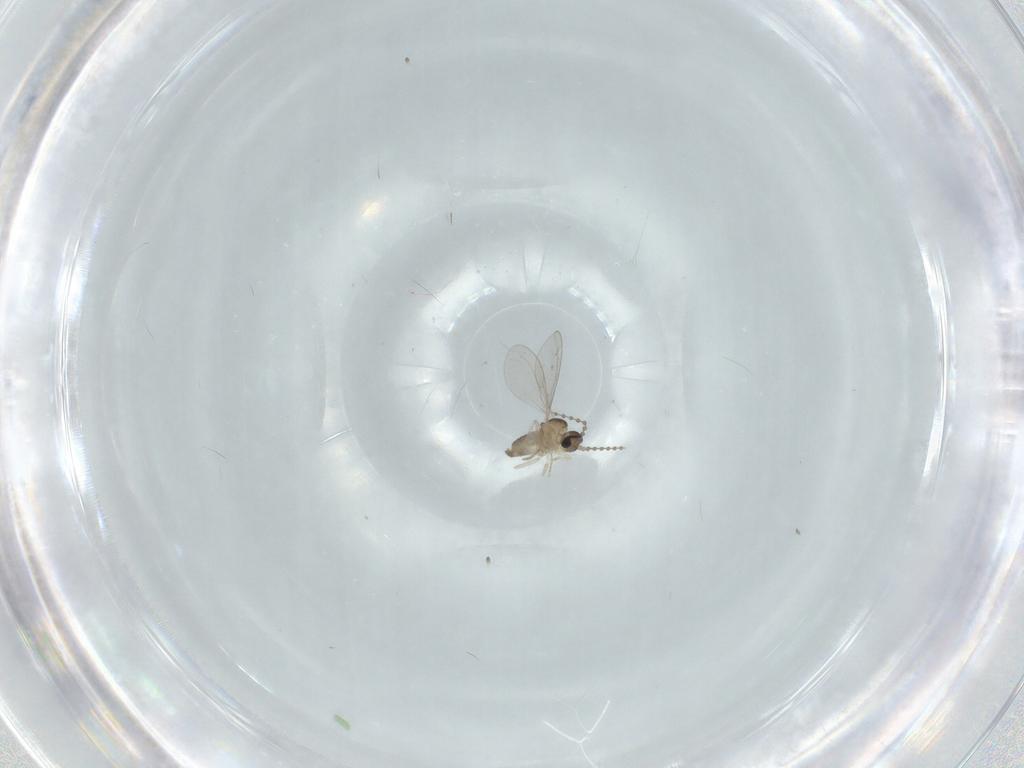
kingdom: Animalia
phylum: Arthropoda
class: Insecta
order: Diptera
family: Cecidomyiidae
